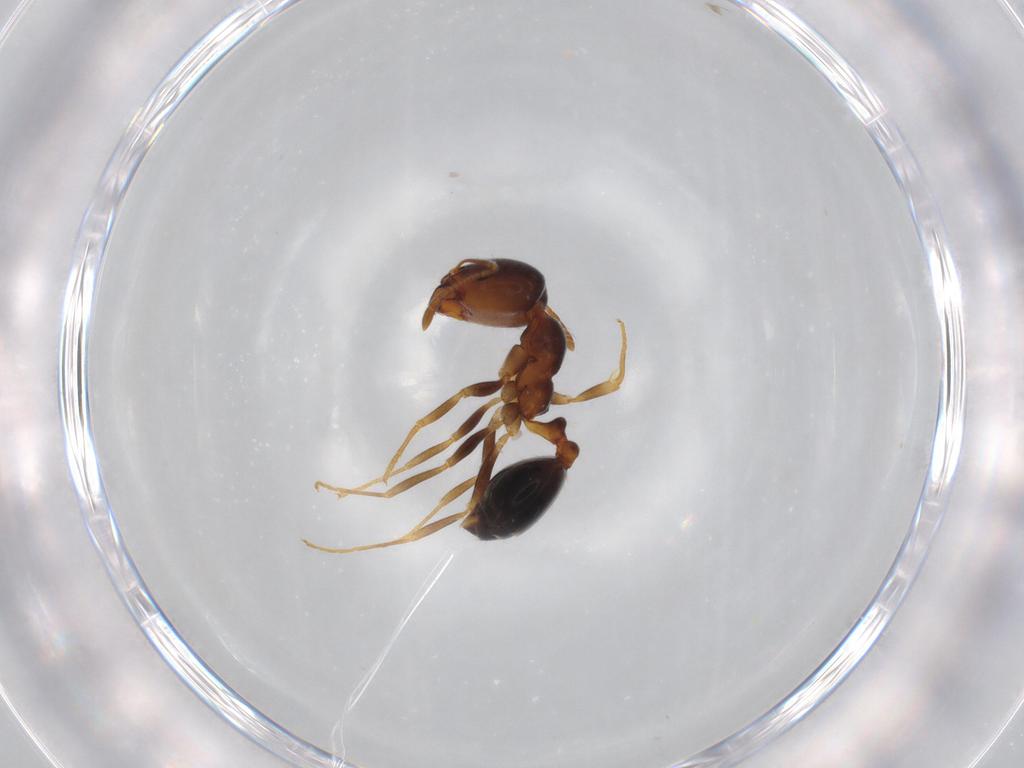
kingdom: Animalia
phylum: Arthropoda
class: Insecta
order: Hymenoptera
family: Formicidae
